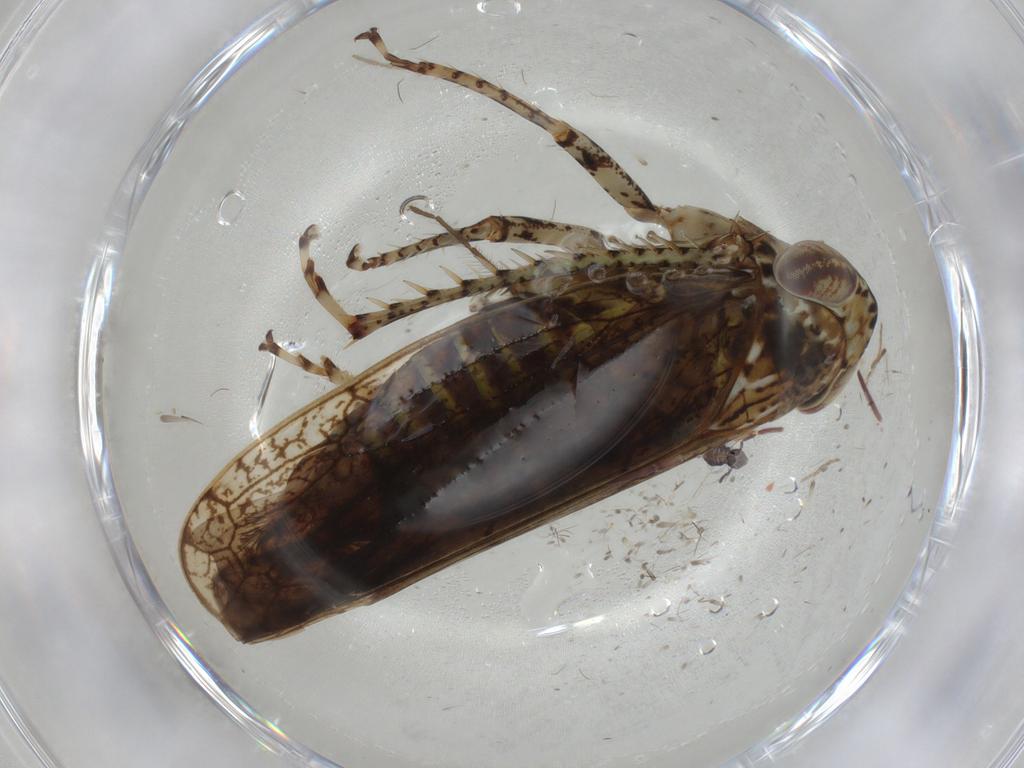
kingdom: Animalia
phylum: Arthropoda
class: Insecta
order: Hemiptera
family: Cicadellidae
